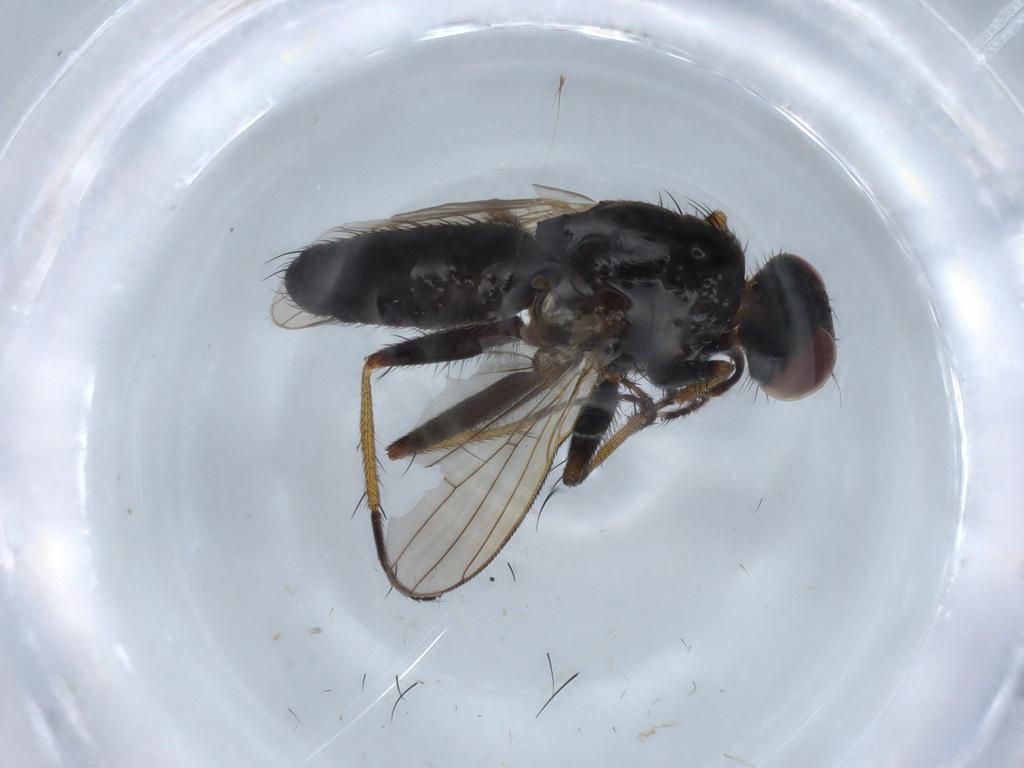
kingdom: Animalia
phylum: Arthropoda
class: Insecta
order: Diptera
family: Muscidae
